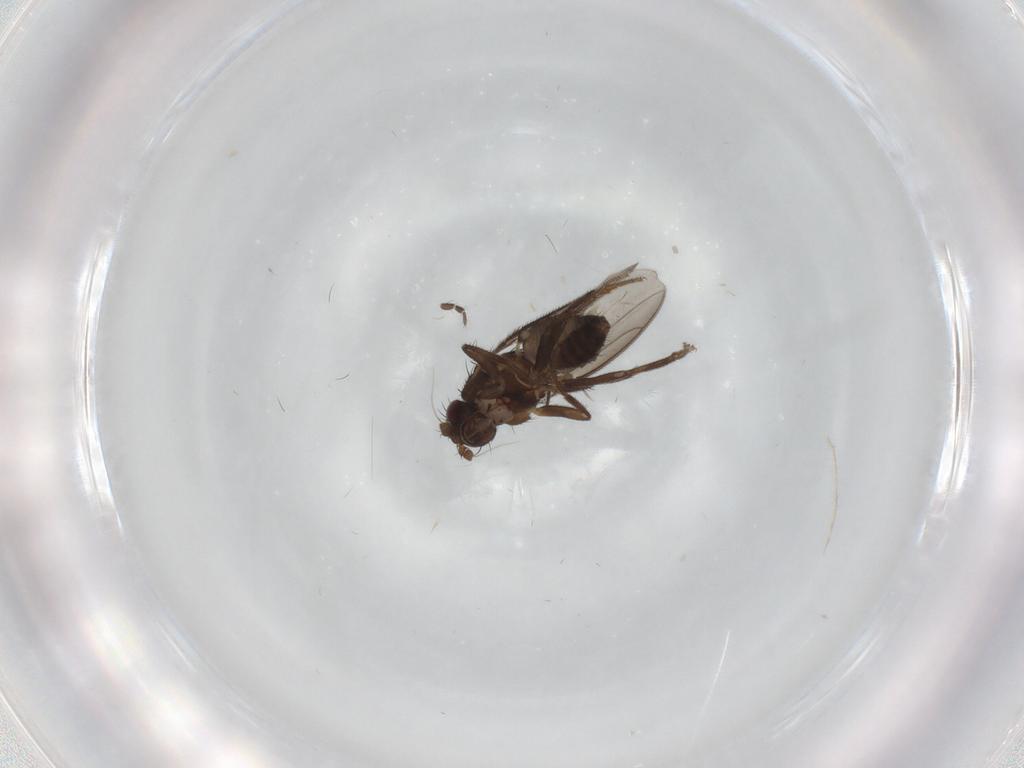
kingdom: Animalia
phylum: Arthropoda
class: Insecta
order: Diptera
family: Sphaeroceridae
